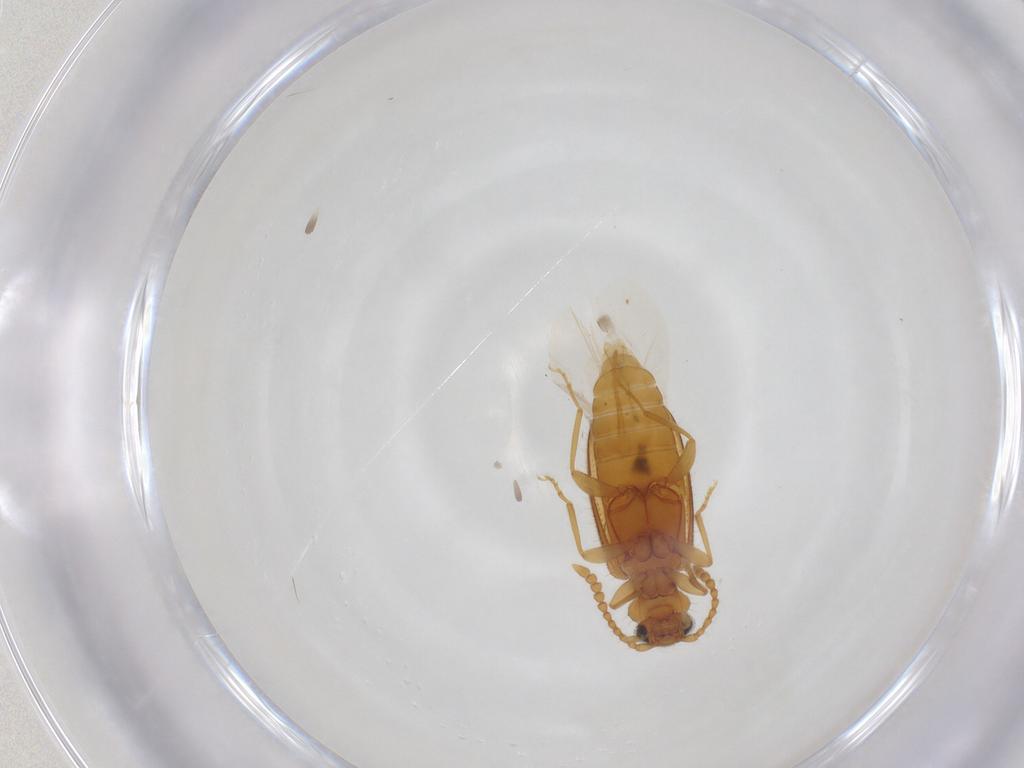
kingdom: Animalia
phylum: Arthropoda
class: Insecta
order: Coleoptera
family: Anthicidae
